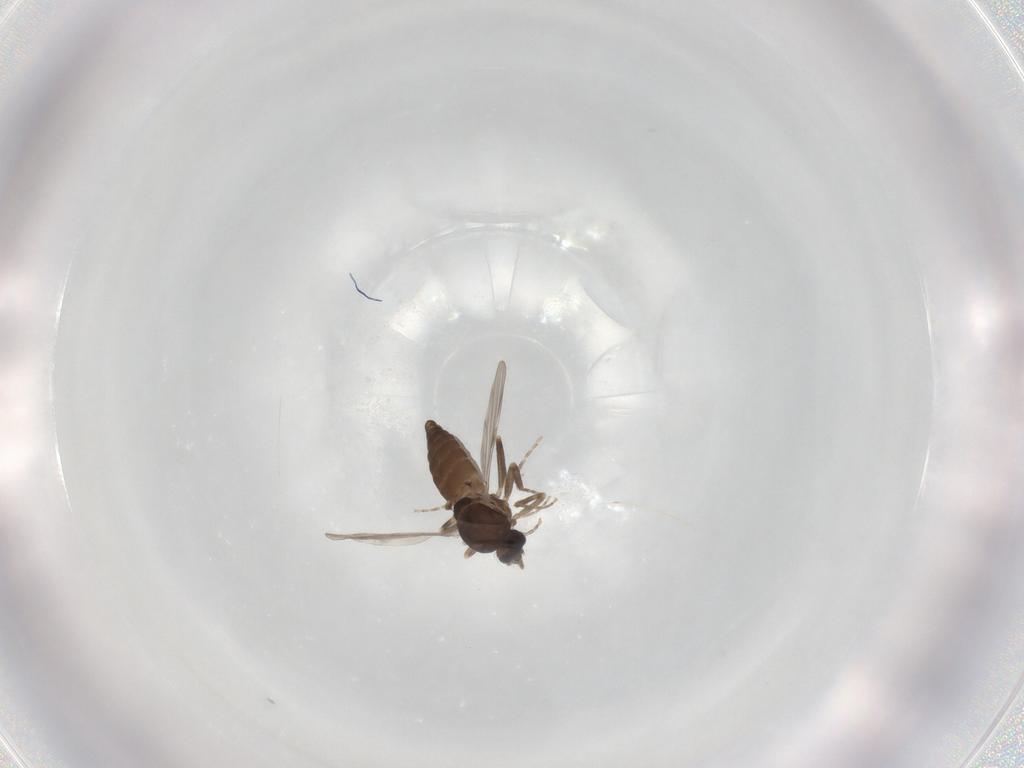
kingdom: Animalia
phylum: Arthropoda
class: Insecta
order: Diptera
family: Ceratopogonidae
